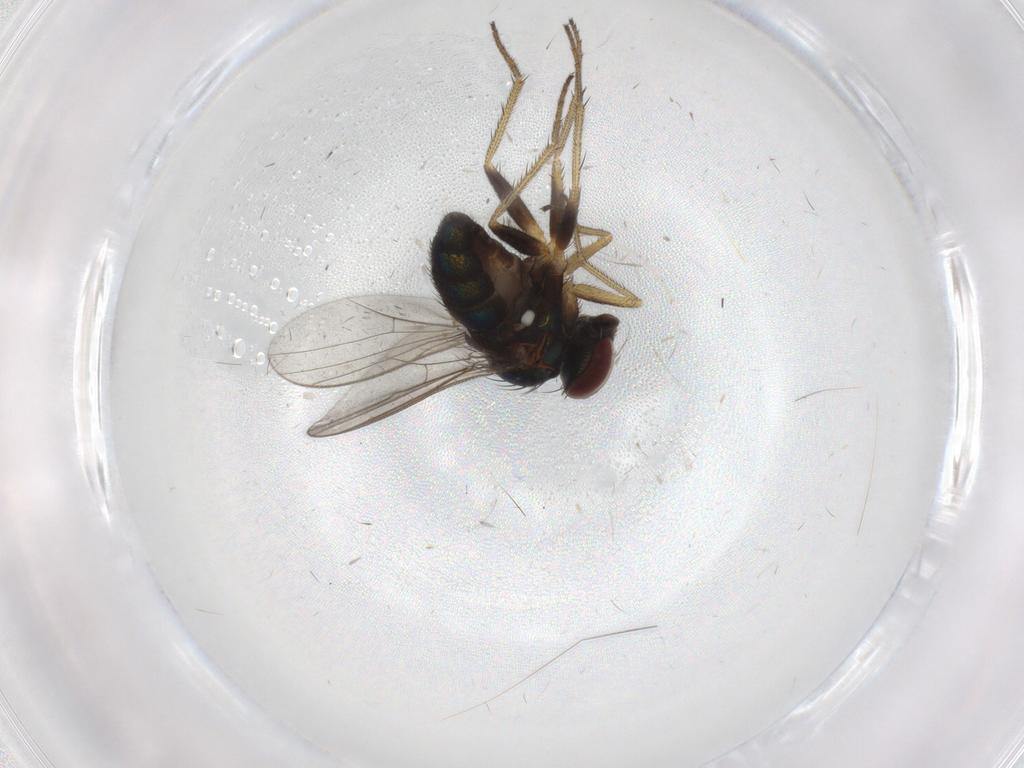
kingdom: Animalia
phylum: Arthropoda
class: Insecta
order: Diptera
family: Cecidomyiidae
